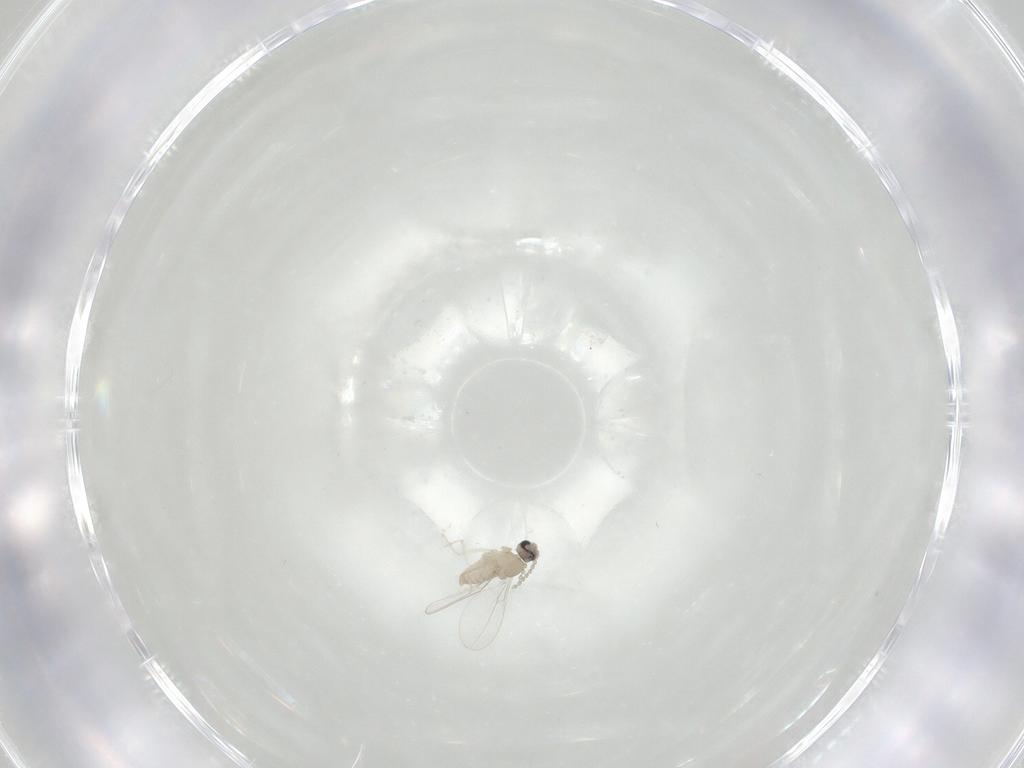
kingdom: Animalia
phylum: Arthropoda
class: Insecta
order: Diptera
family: Cecidomyiidae
